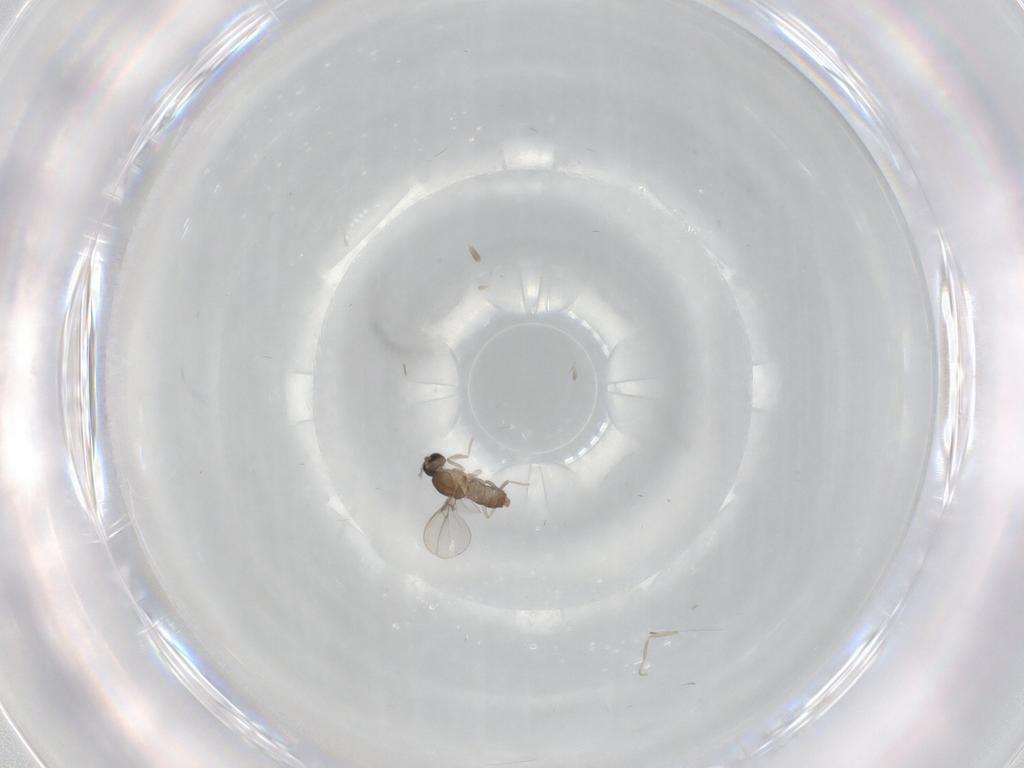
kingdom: Animalia
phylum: Arthropoda
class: Insecta
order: Diptera
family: Cecidomyiidae
